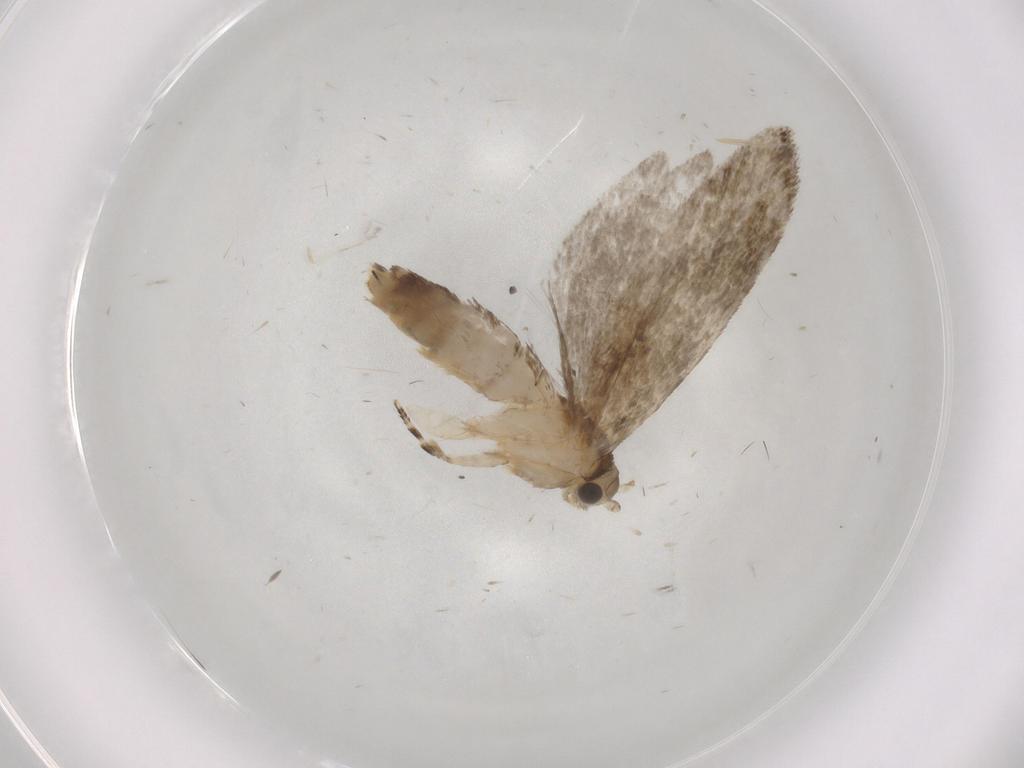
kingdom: Animalia
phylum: Arthropoda
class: Insecta
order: Lepidoptera
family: Tineidae
